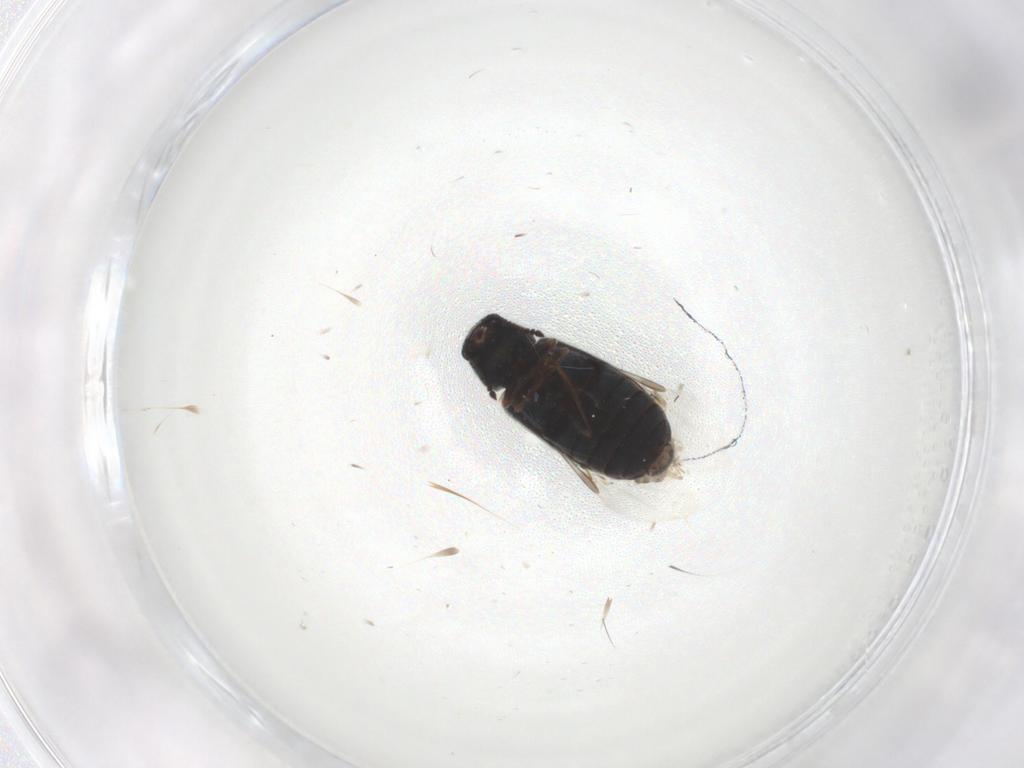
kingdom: Animalia
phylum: Arthropoda
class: Insecta
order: Coleoptera
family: Melyridae
